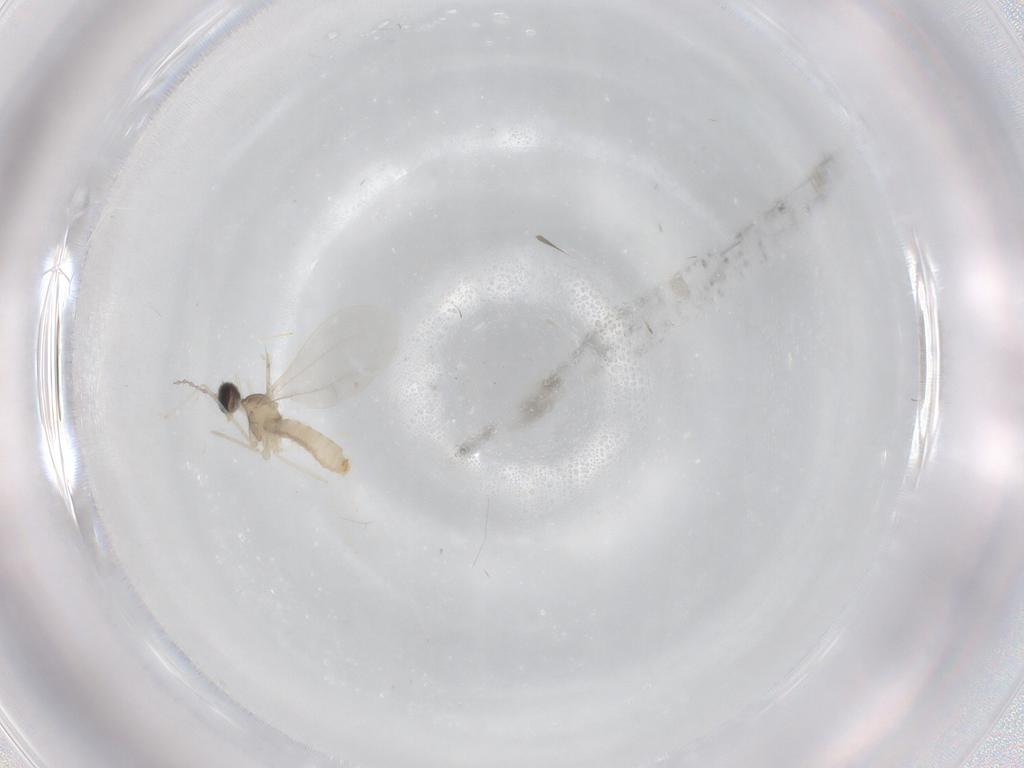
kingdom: Animalia
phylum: Arthropoda
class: Insecta
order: Diptera
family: Cecidomyiidae
